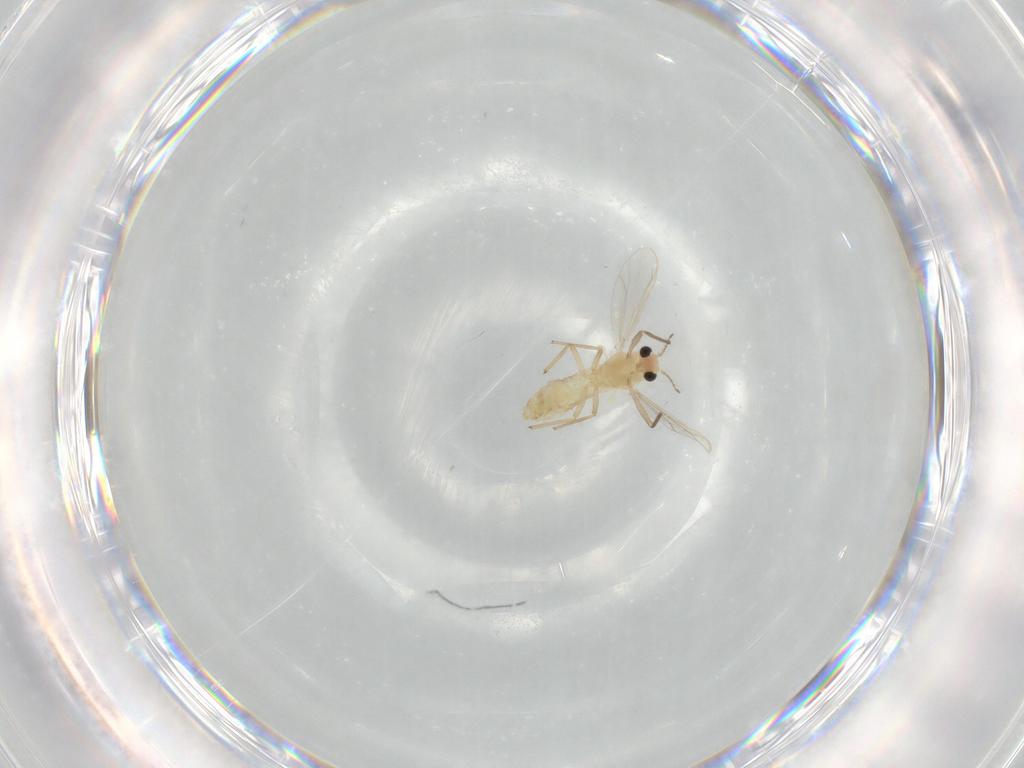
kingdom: Animalia
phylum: Arthropoda
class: Insecta
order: Diptera
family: Chironomidae
